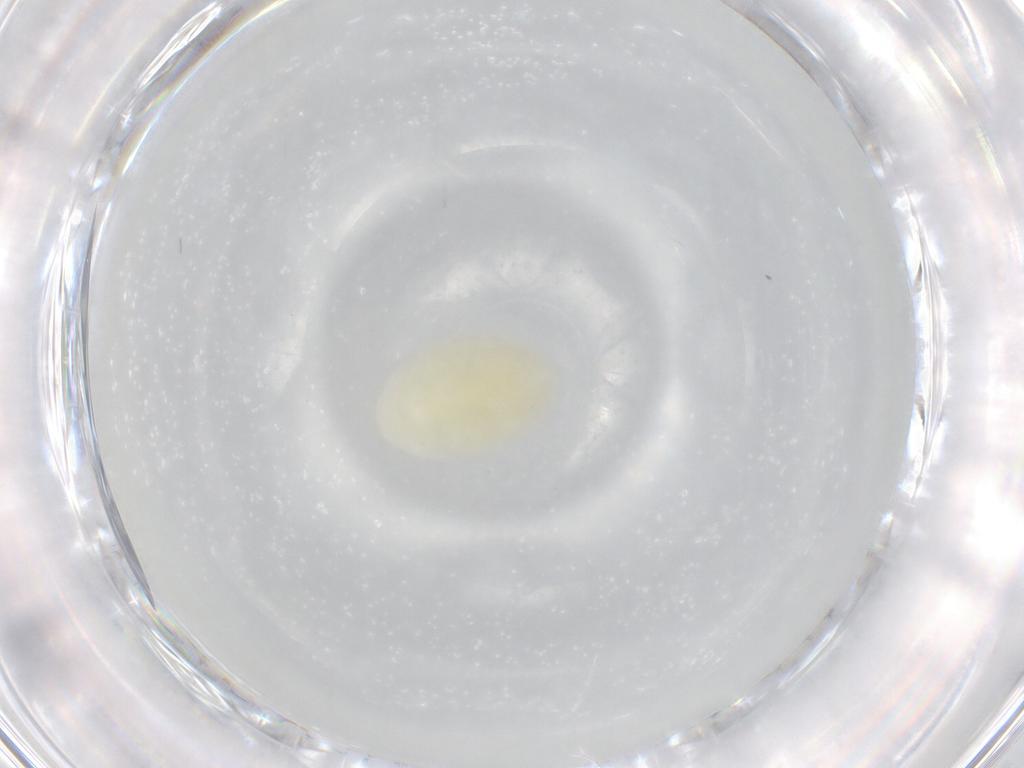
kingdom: Animalia
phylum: Arthropoda
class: Arachnida
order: Trombidiformes
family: Trombidiidae
